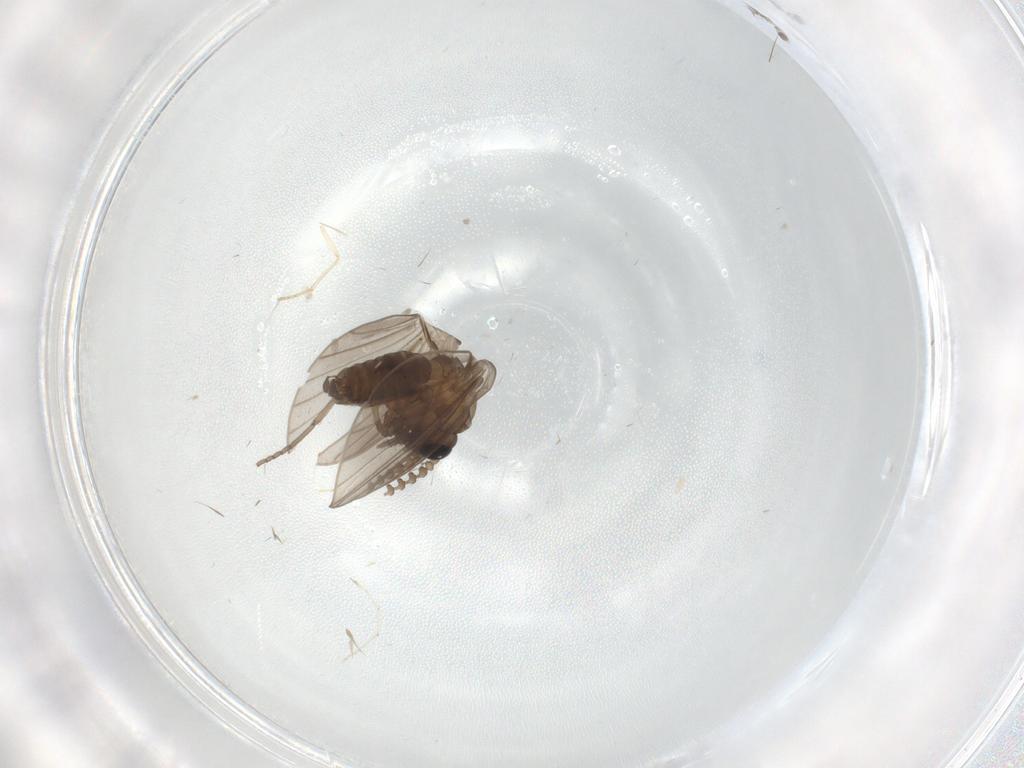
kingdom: Animalia
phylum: Arthropoda
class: Insecta
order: Diptera
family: Psychodidae
